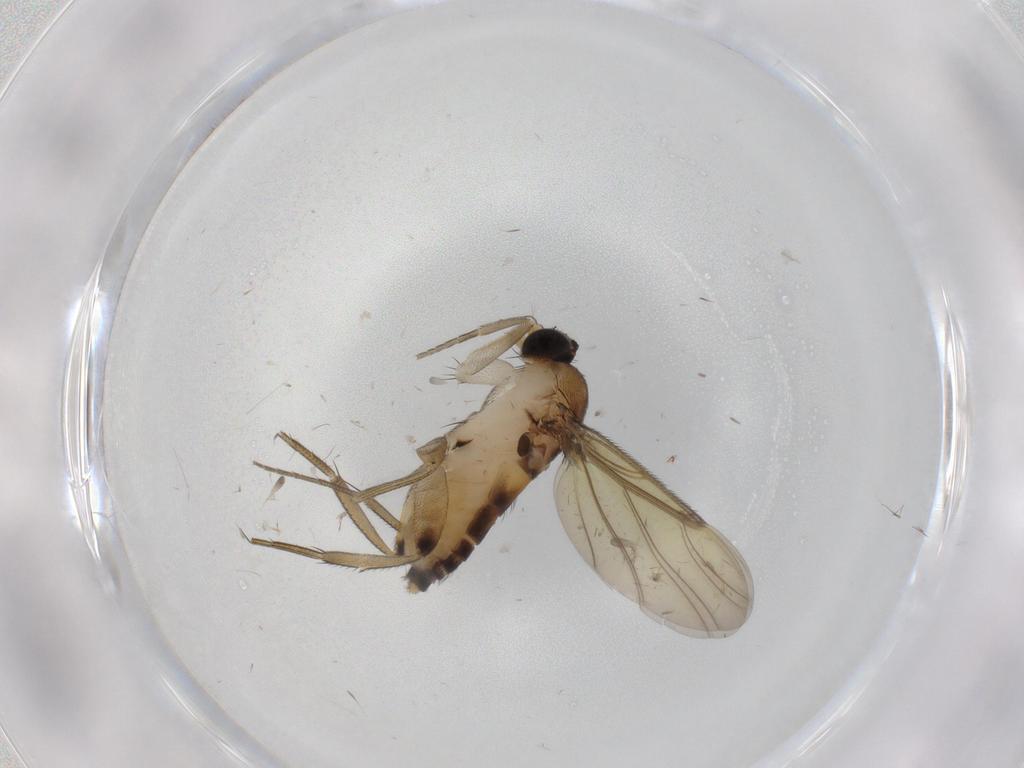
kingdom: Animalia
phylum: Arthropoda
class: Insecta
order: Diptera
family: Phoridae
